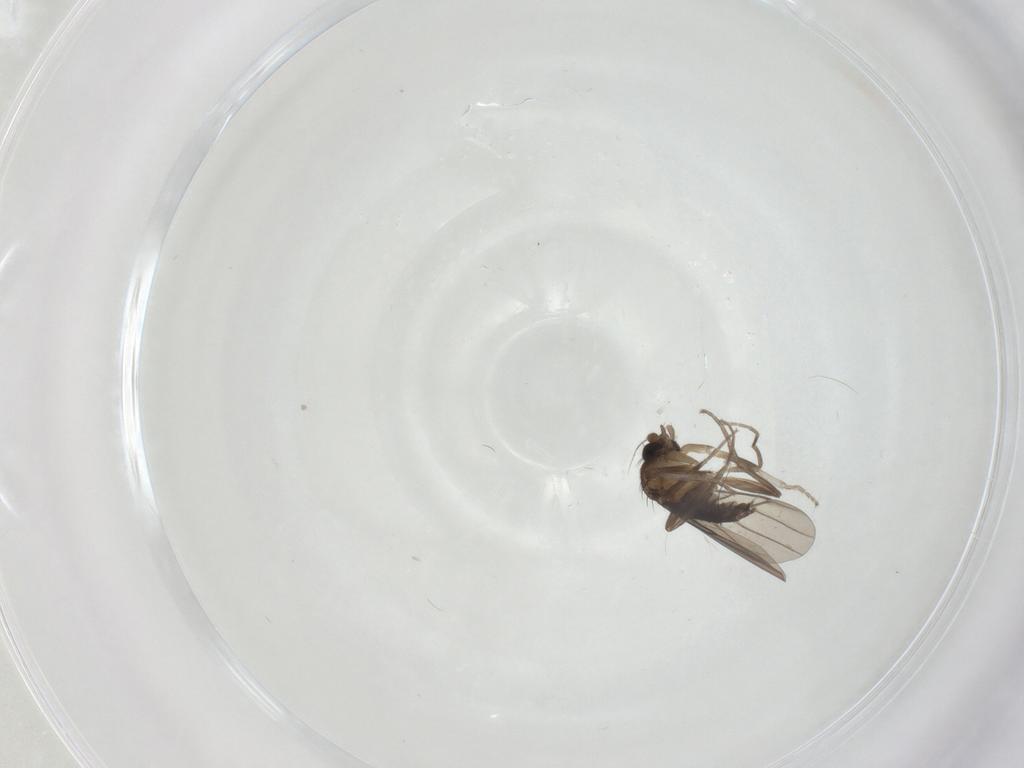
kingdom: Animalia
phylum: Arthropoda
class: Insecta
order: Diptera
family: Phoridae
